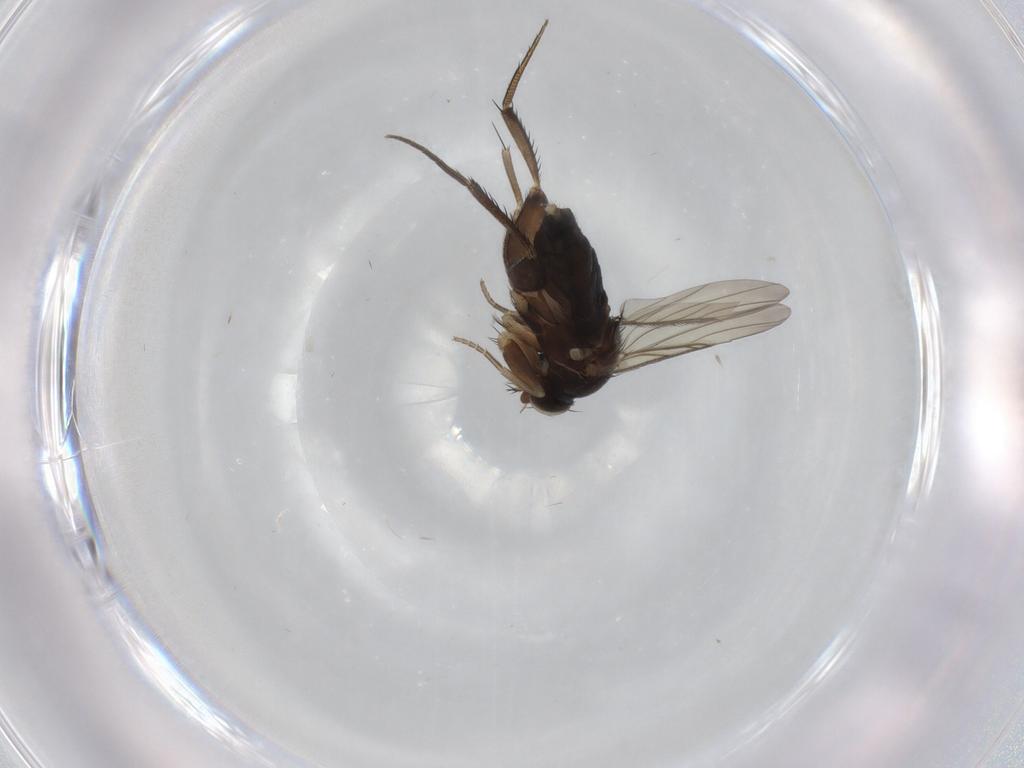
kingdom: Animalia
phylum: Arthropoda
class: Insecta
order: Diptera
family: Phoridae
